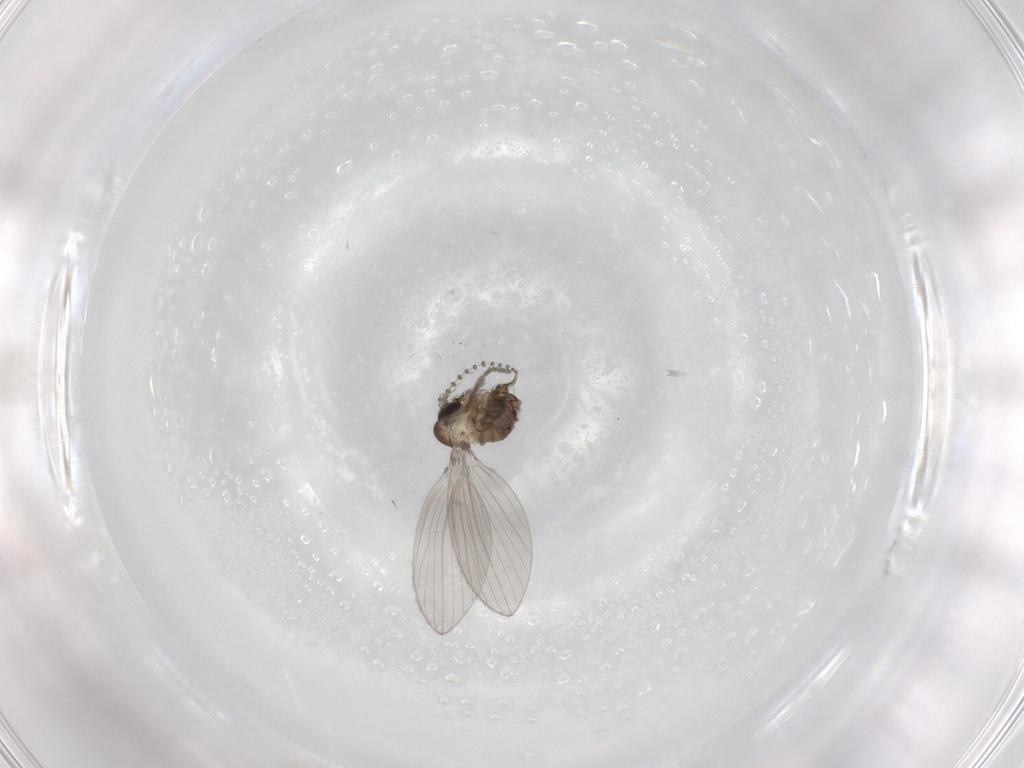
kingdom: Animalia
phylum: Arthropoda
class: Insecta
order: Diptera
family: Psychodidae
